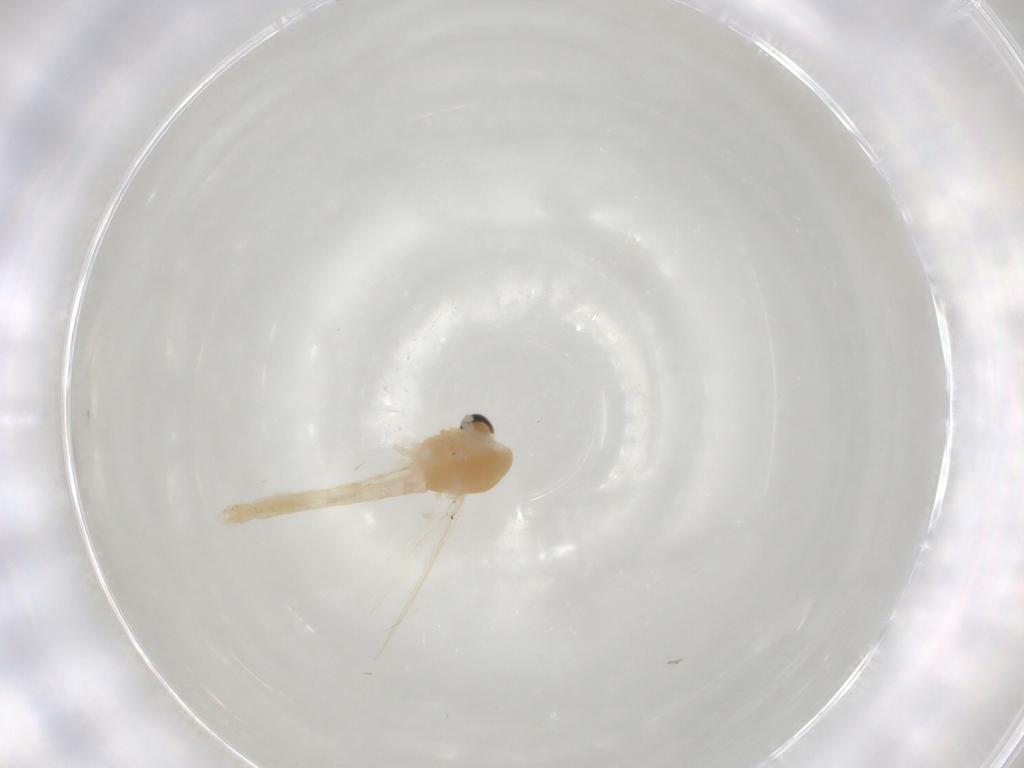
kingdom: Animalia
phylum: Arthropoda
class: Insecta
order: Diptera
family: Chironomidae
